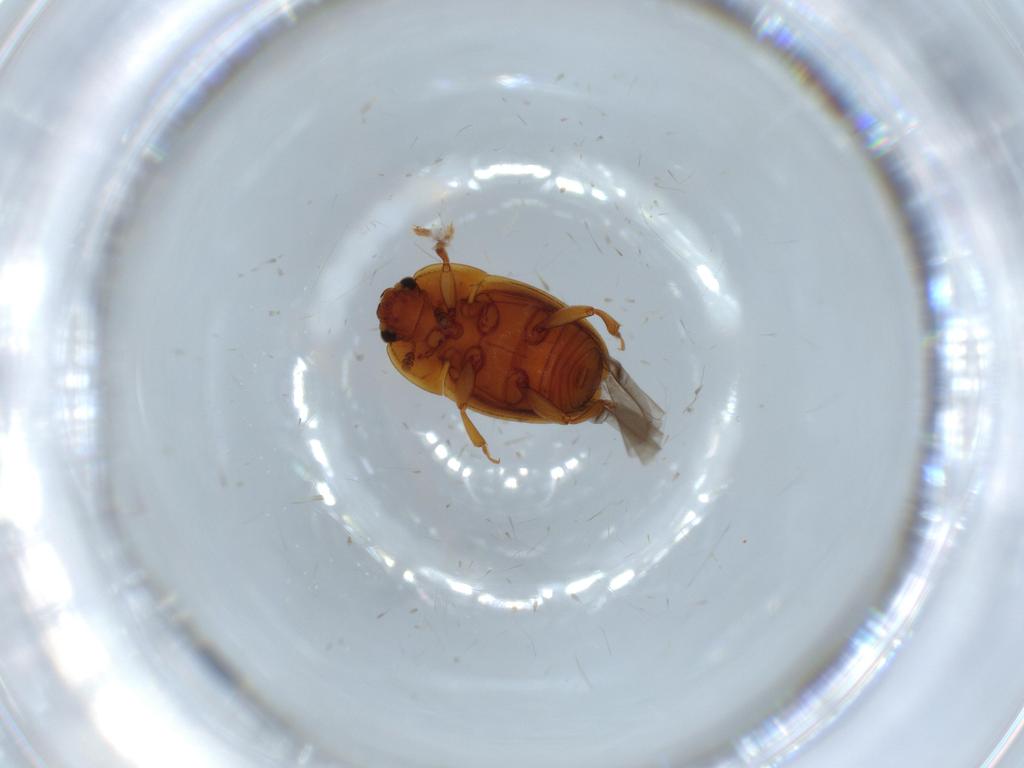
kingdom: Animalia
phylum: Arthropoda
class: Insecta
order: Coleoptera
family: Nitidulidae
